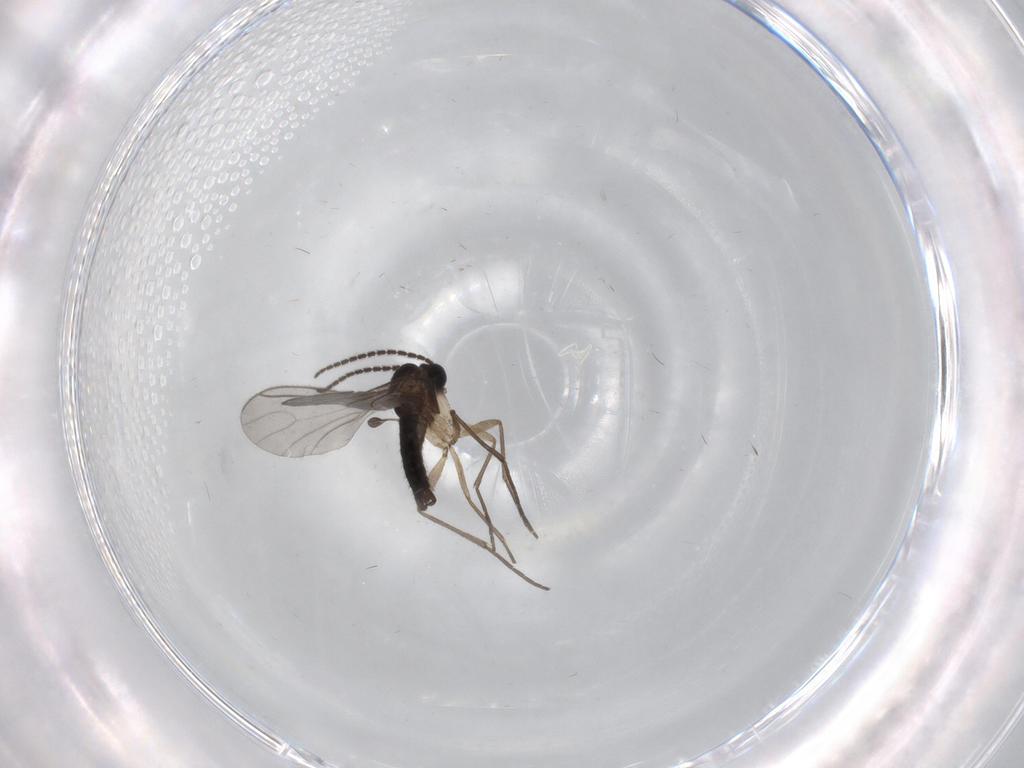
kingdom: Animalia
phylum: Arthropoda
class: Insecta
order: Diptera
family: Sciaridae
